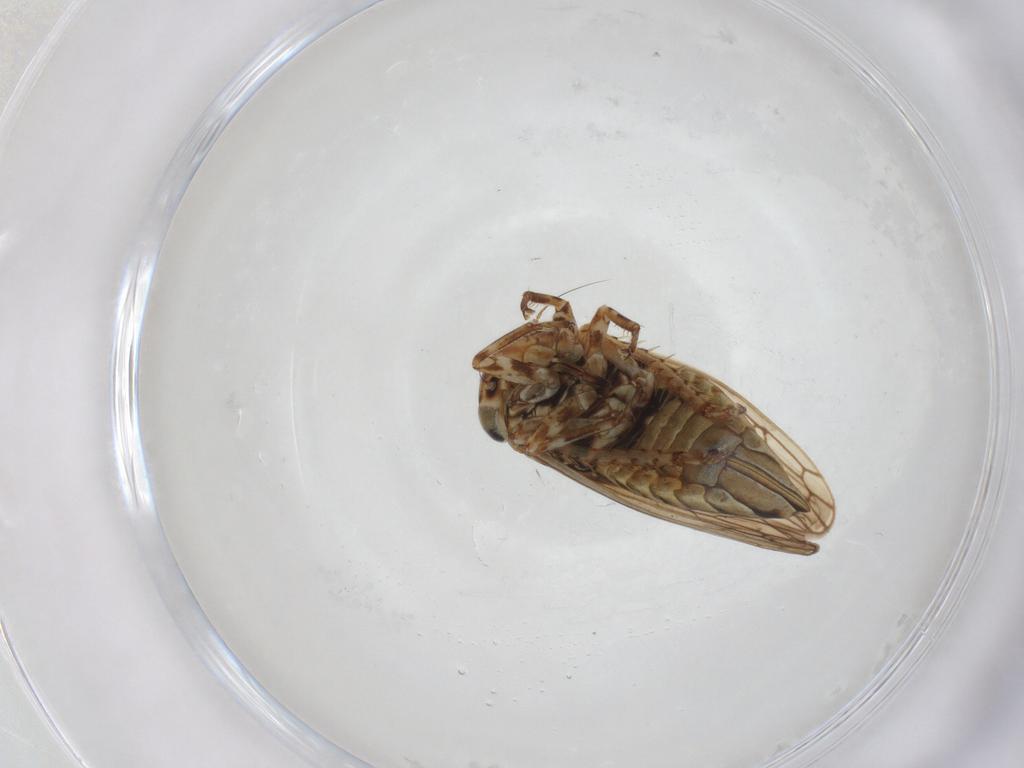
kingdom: Animalia
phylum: Arthropoda
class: Insecta
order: Hemiptera
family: Cicadellidae
